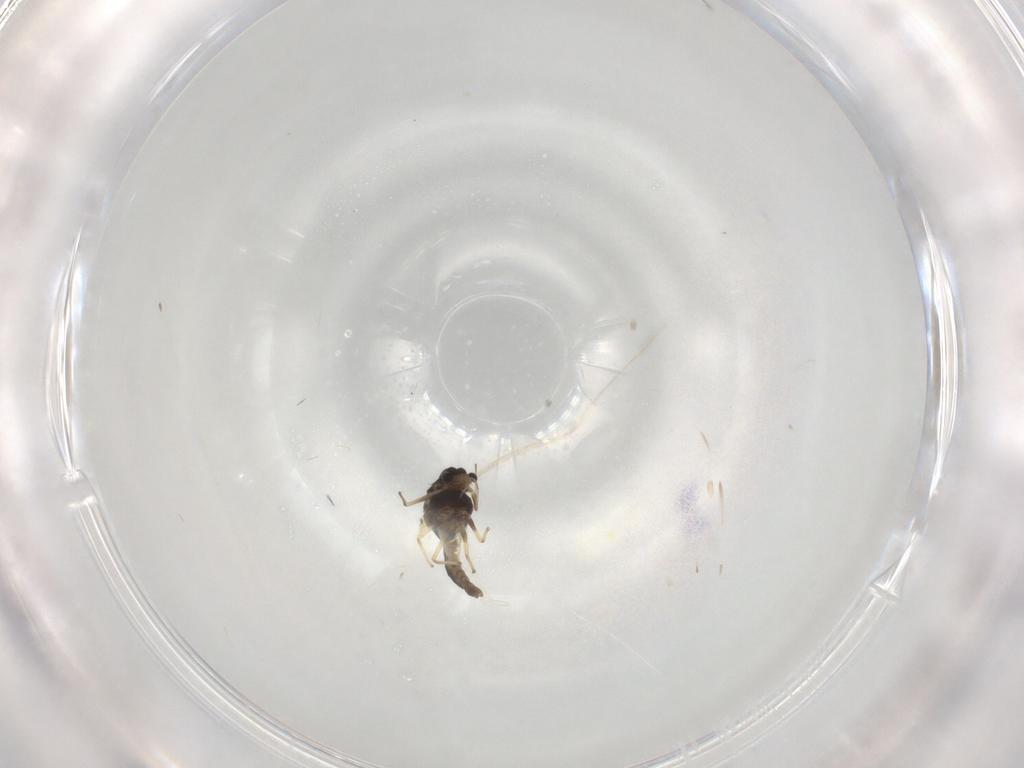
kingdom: Animalia
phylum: Arthropoda
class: Insecta
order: Diptera
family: Chironomidae
